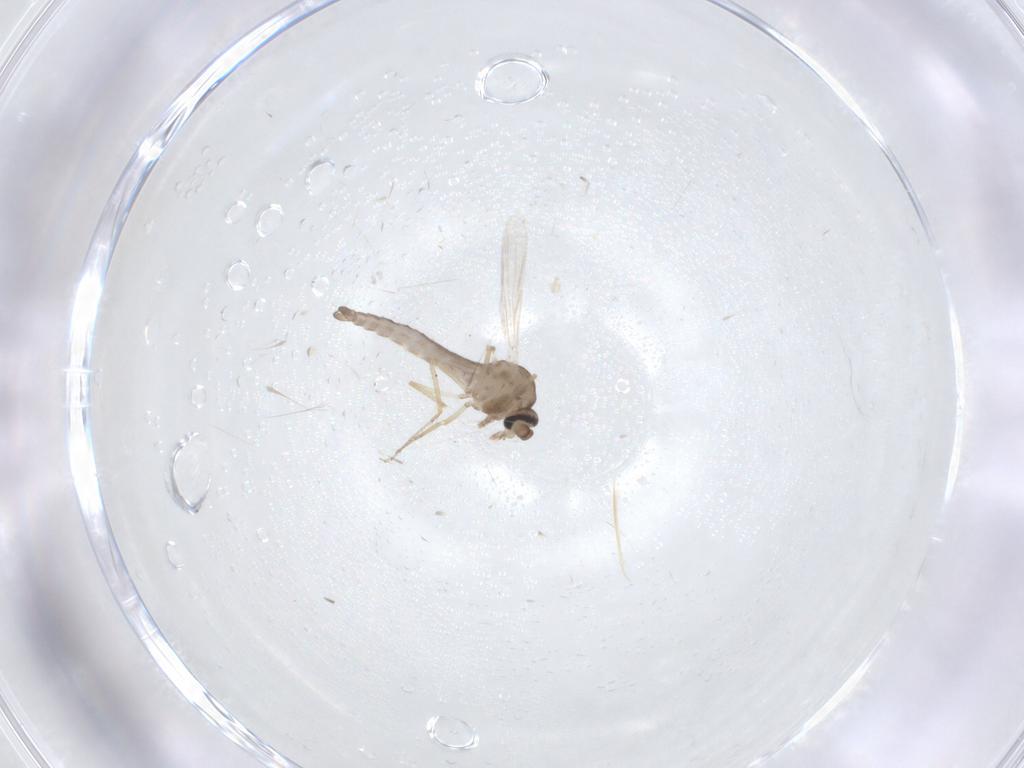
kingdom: Animalia
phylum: Arthropoda
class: Insecta
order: Diptera
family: Ceratopogonidae
